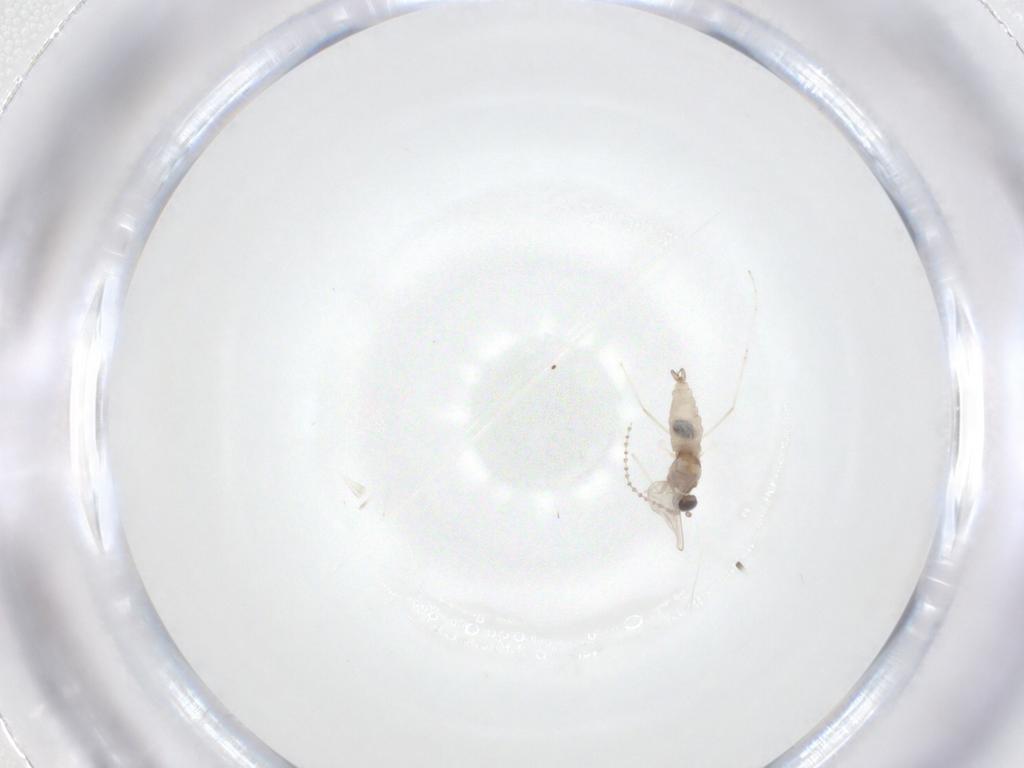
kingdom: Animalia
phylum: Arthropoda
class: Insecta
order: Diptera
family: Cecidomyiidae
